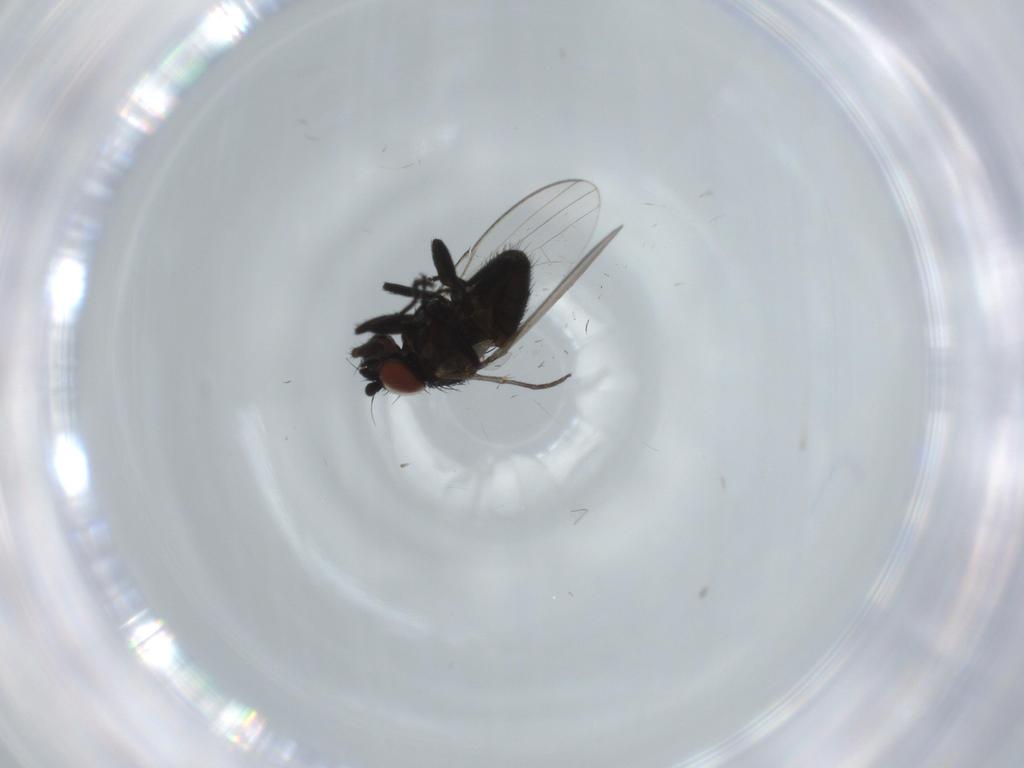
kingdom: Animalia
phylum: Arthropoda
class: Insecta
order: Diptera
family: Sciaridae
